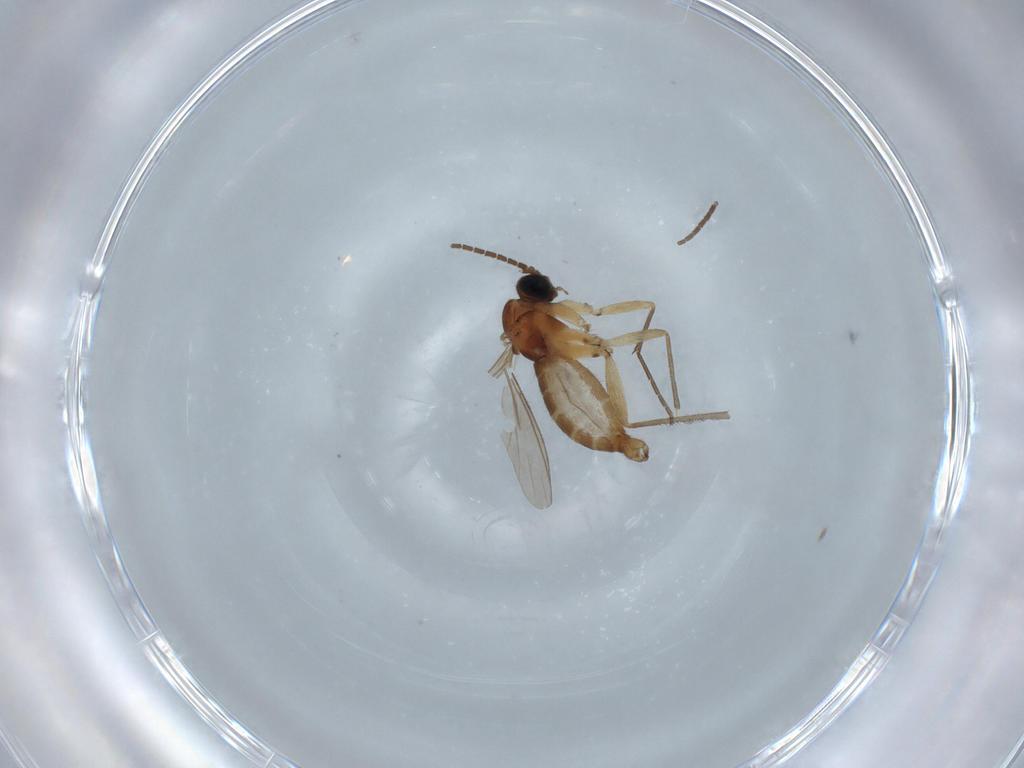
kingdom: Animalia
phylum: Arthropoda
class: Insecta
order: Diptera
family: Sciaridae
